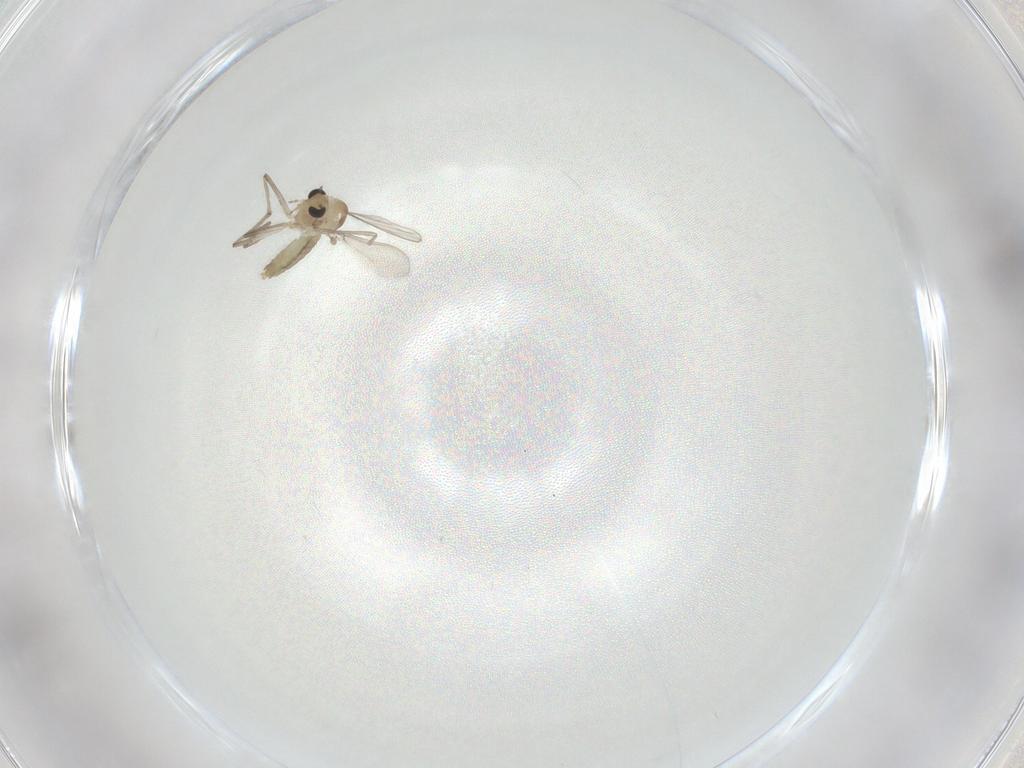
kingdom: Animalia
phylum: Arthropoda
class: Insecta
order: Diptera
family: Chironomidae
